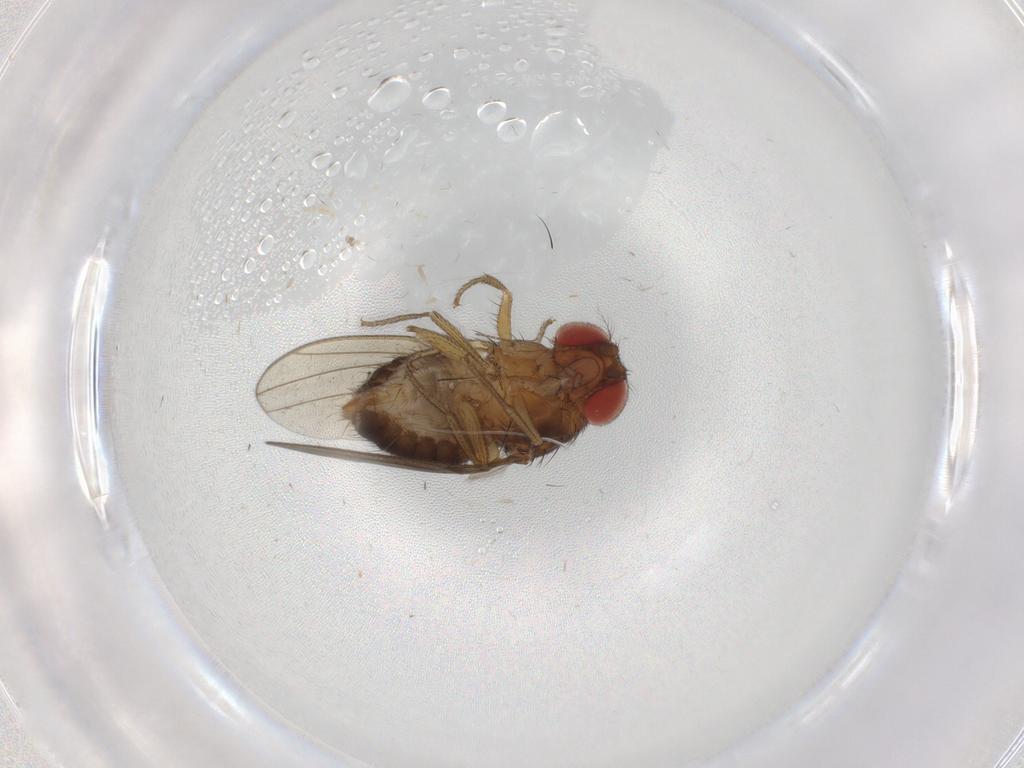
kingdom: Animalia
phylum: Arthropoda
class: Insecta
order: Diptera
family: Drosophilidae
